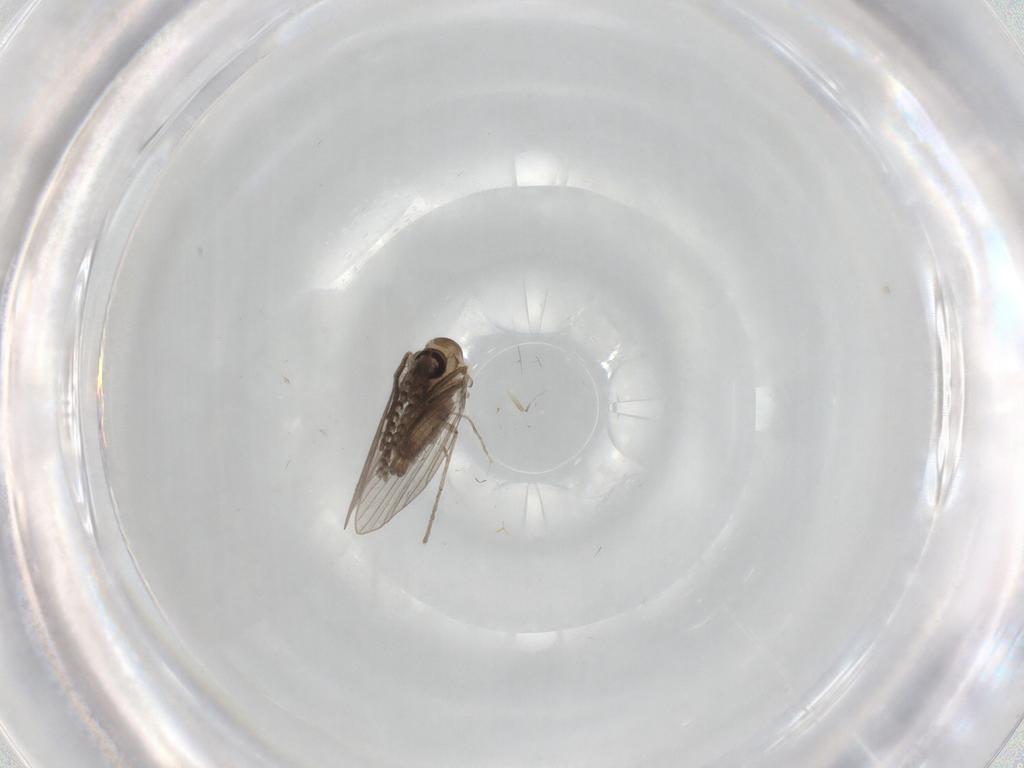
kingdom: Animalia
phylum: Arthropoda
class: Insecta
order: Diptera
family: Chironomidae
